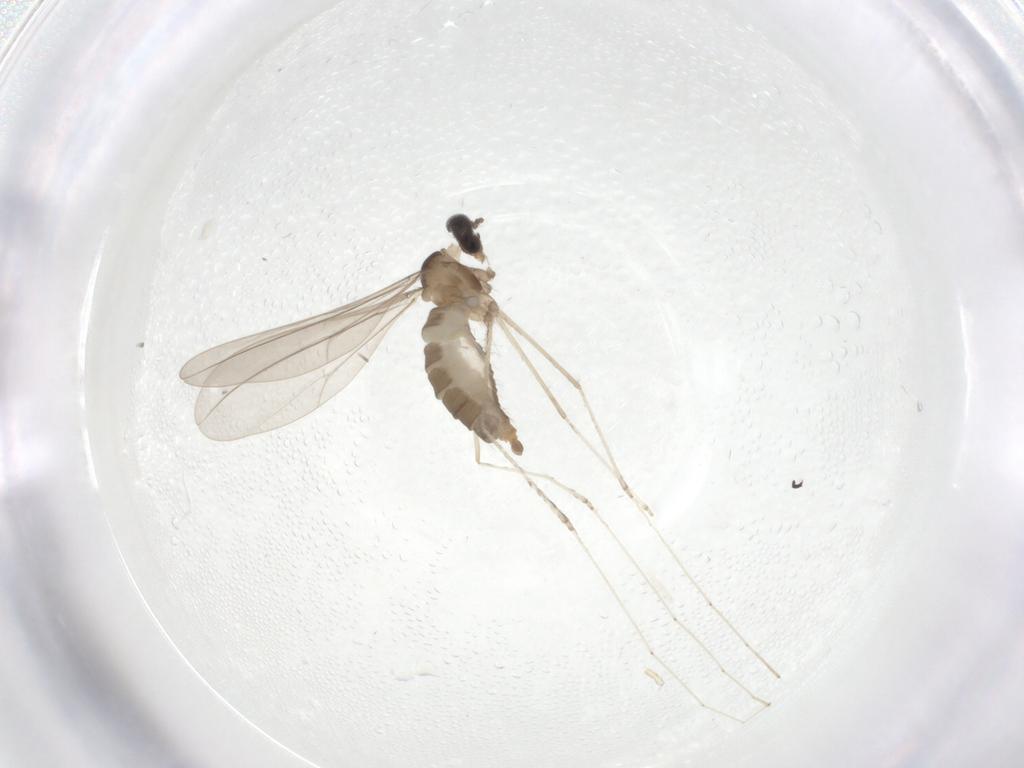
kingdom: Animalia
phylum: Arthropoda
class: Insecta
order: Diptera
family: Cecidomyiidae
